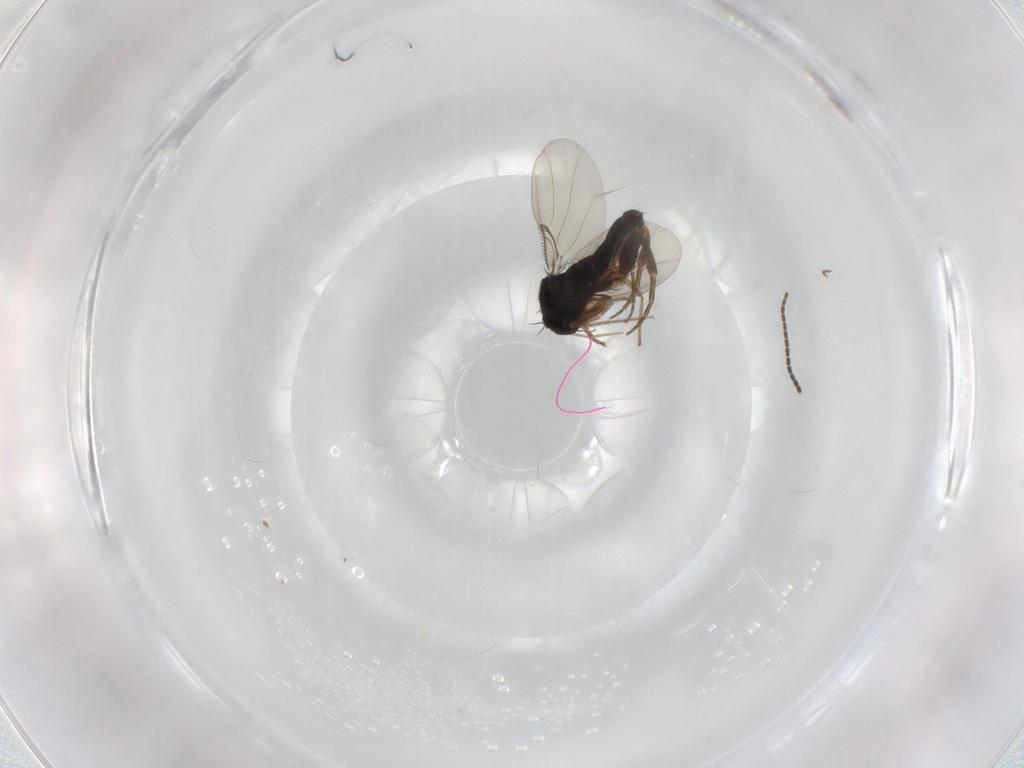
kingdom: Animalia
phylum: Arthropoda
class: Insecta
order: Diptera
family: Phoridae
